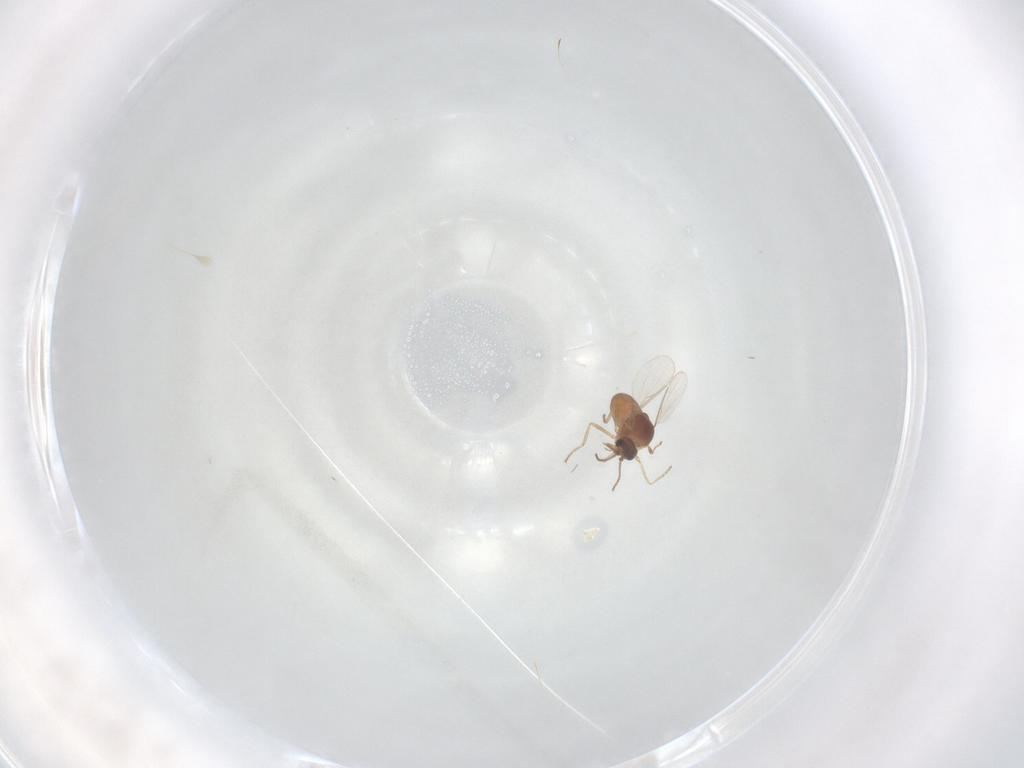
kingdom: Animalia
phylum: Arthropoda
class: Insecta
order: Diptera
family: Ceratopogonidae
